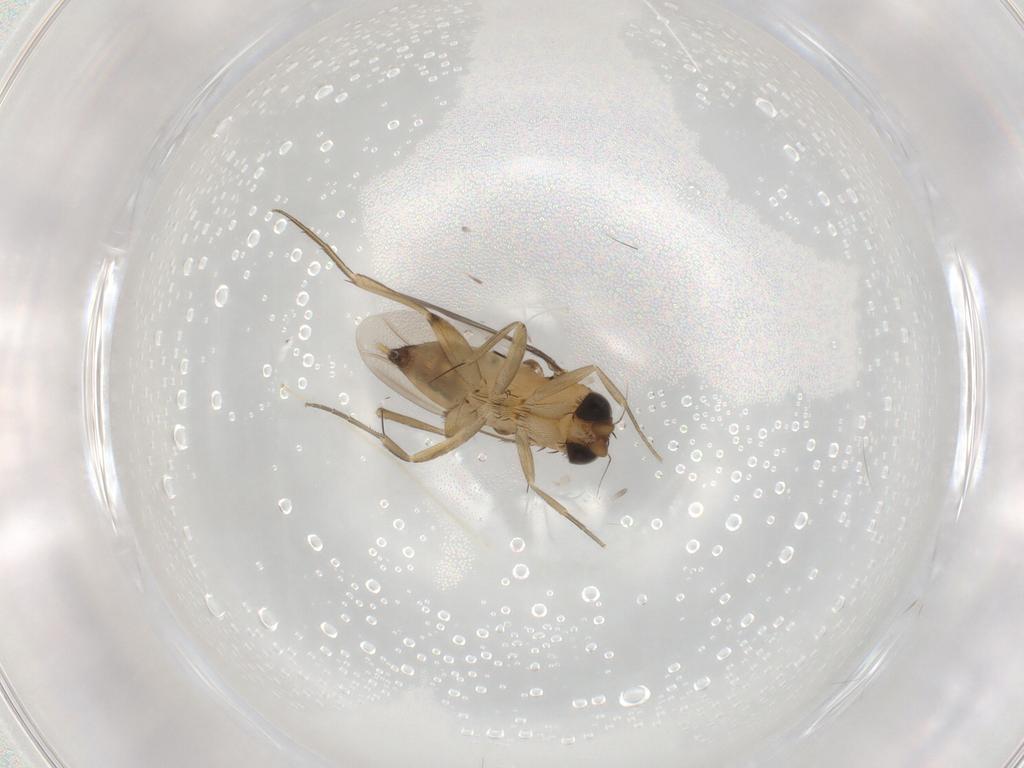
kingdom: Animalia
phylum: Arthropoda
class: Insecta
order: Diptera
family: Phoridae
